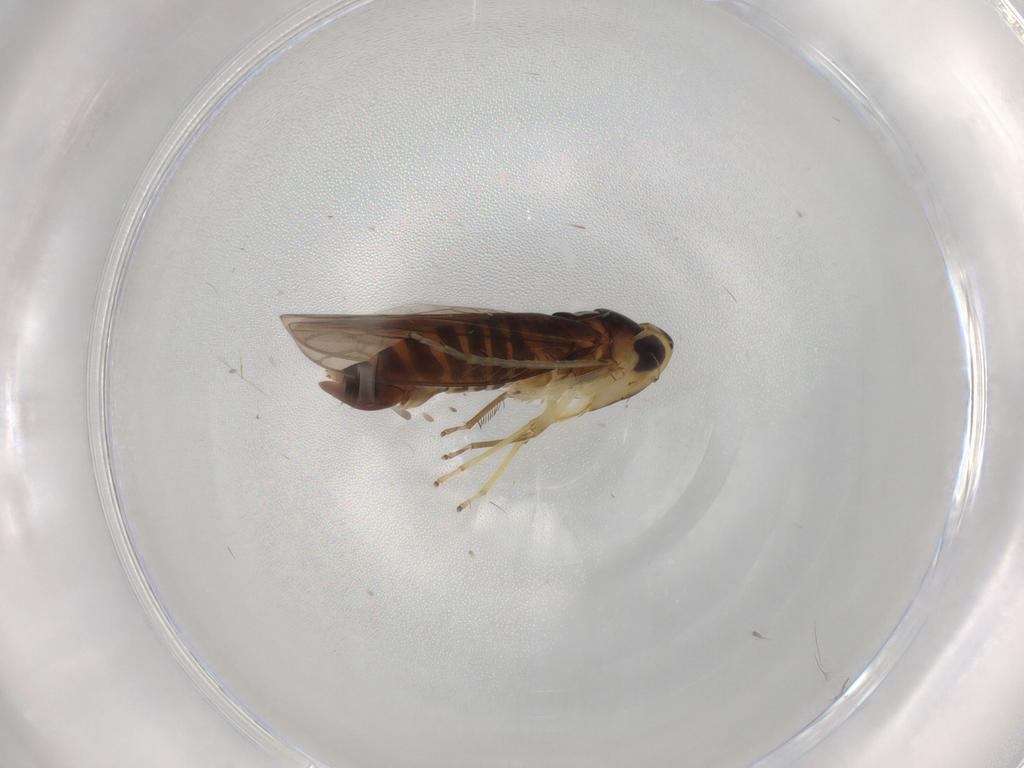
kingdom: Animalia
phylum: Arthropoda
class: Insecta
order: Hemiptera
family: Cicadellidae
